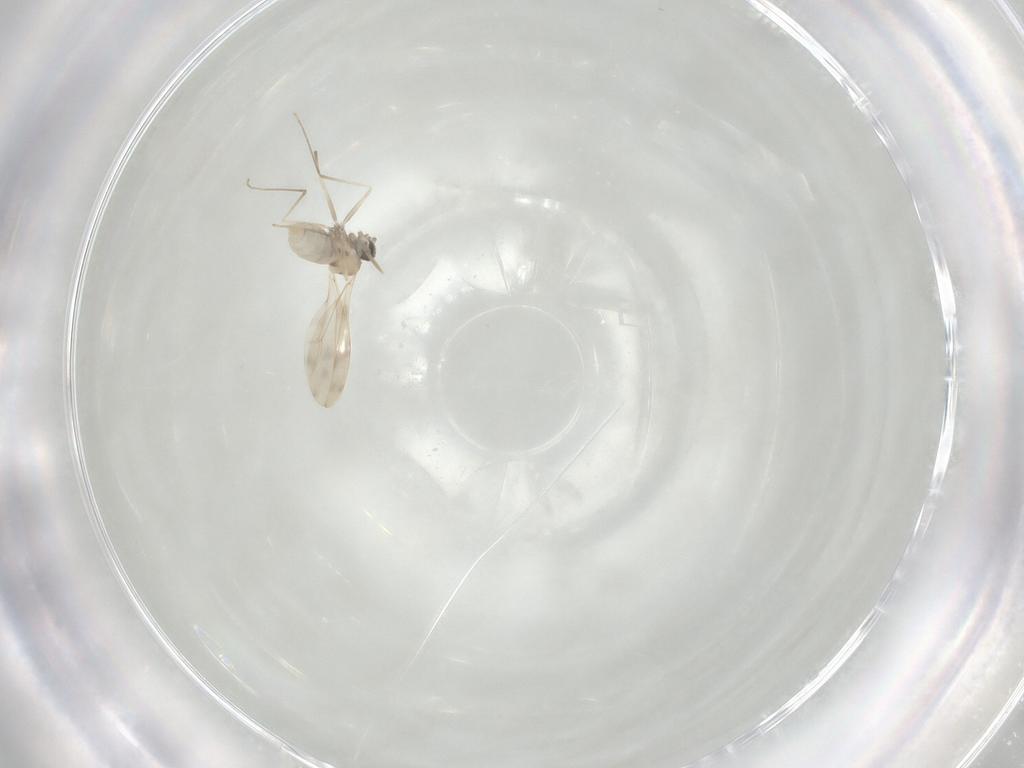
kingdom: Animalia
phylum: Arthropoda
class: Insecta
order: Diptera
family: Cecidomyiidae
